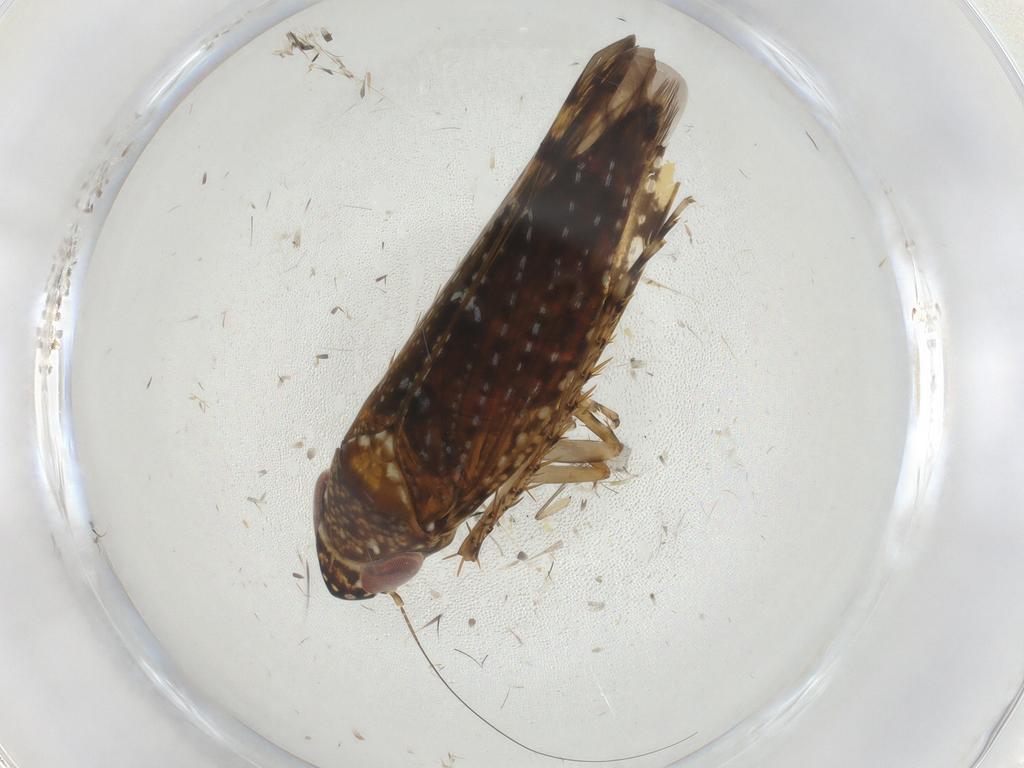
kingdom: Animalia
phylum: Arthropoda
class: Insecta
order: Hemiptera
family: Cicadellidae
